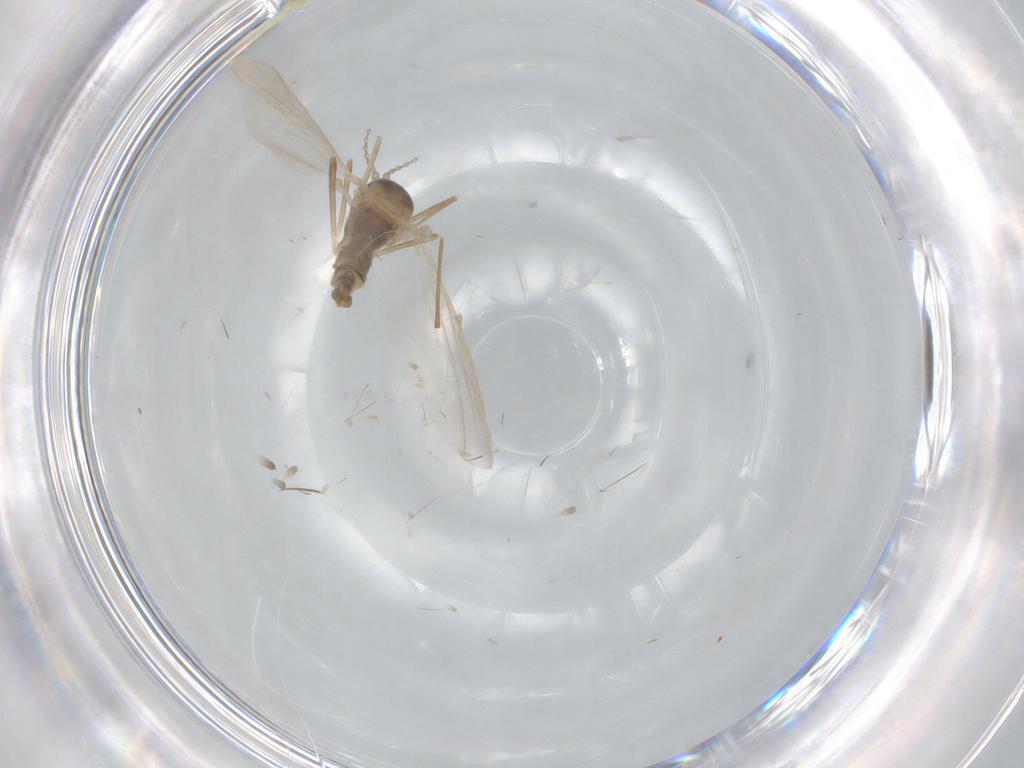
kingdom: Animalia
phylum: Arthropoda
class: Insecta
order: Diptera
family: Cecidomyiidae
